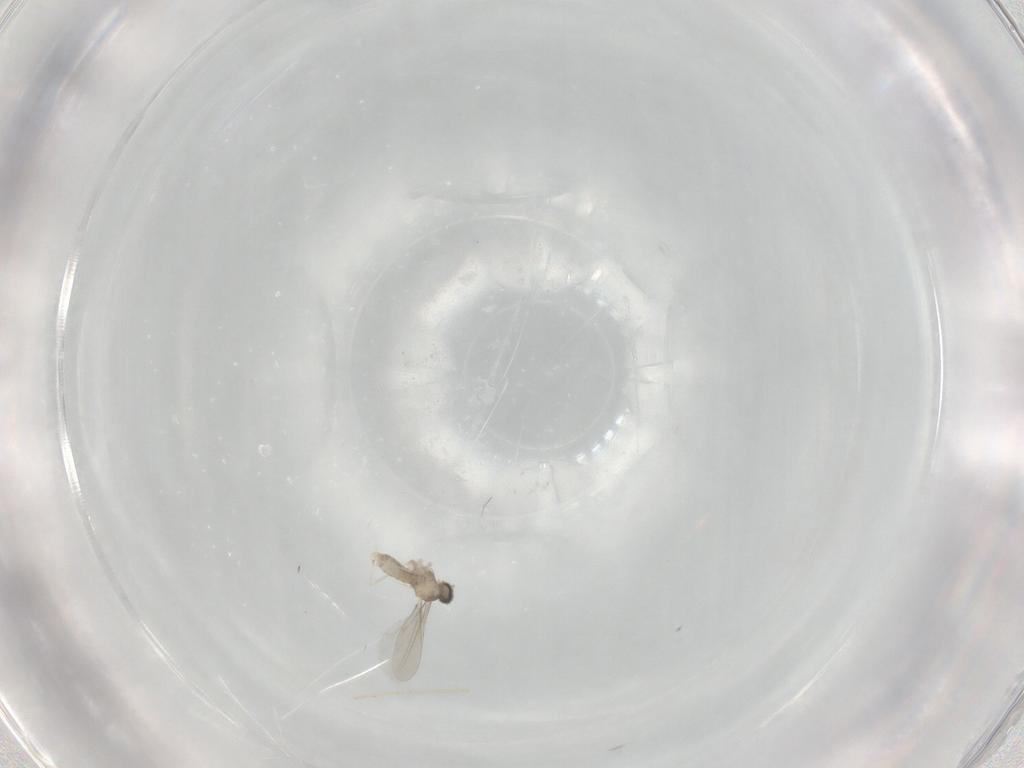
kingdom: Animalia
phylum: Arthropoda
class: Insecta
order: Diptera
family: Cecidomyiidae
